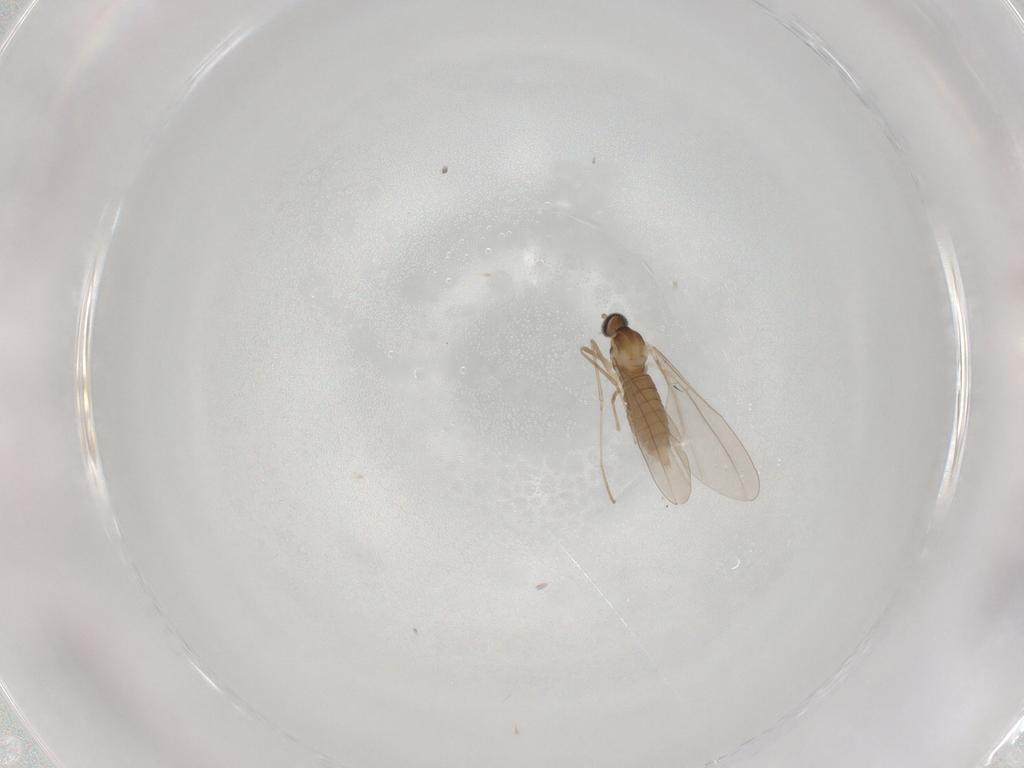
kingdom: Animalia
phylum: Arthropoda
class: Insecta
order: Diptera
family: Cecidomyiidae
